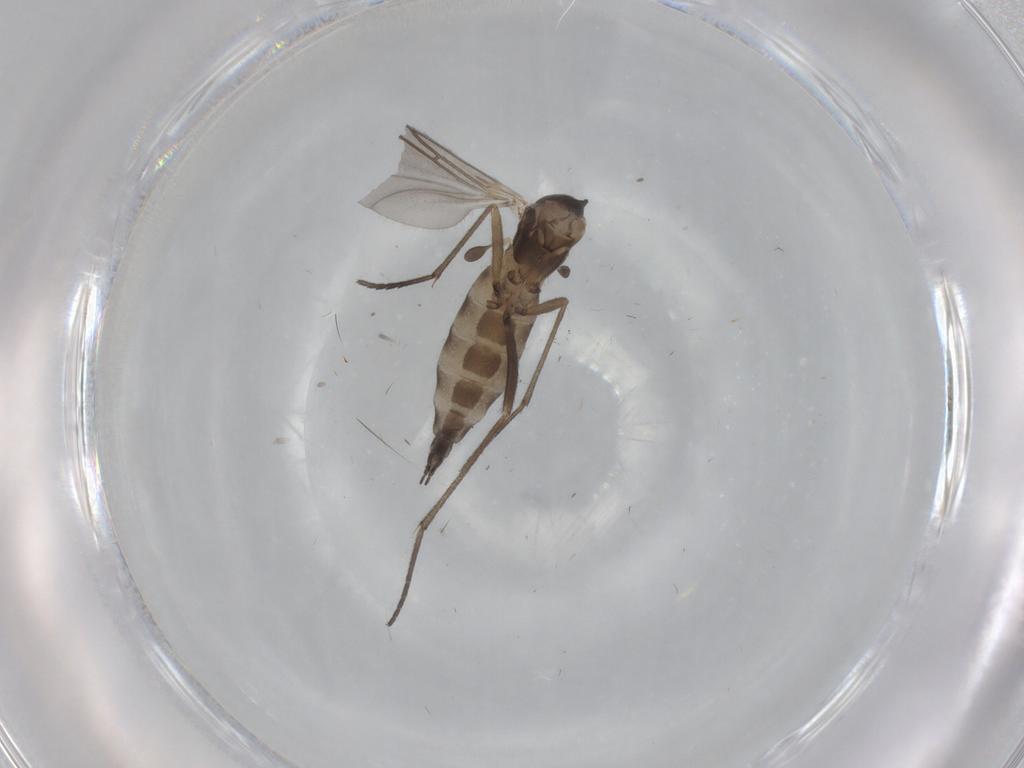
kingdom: Animalia
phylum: Arthropoda
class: Insecta
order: Diptera
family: Sciaridae
